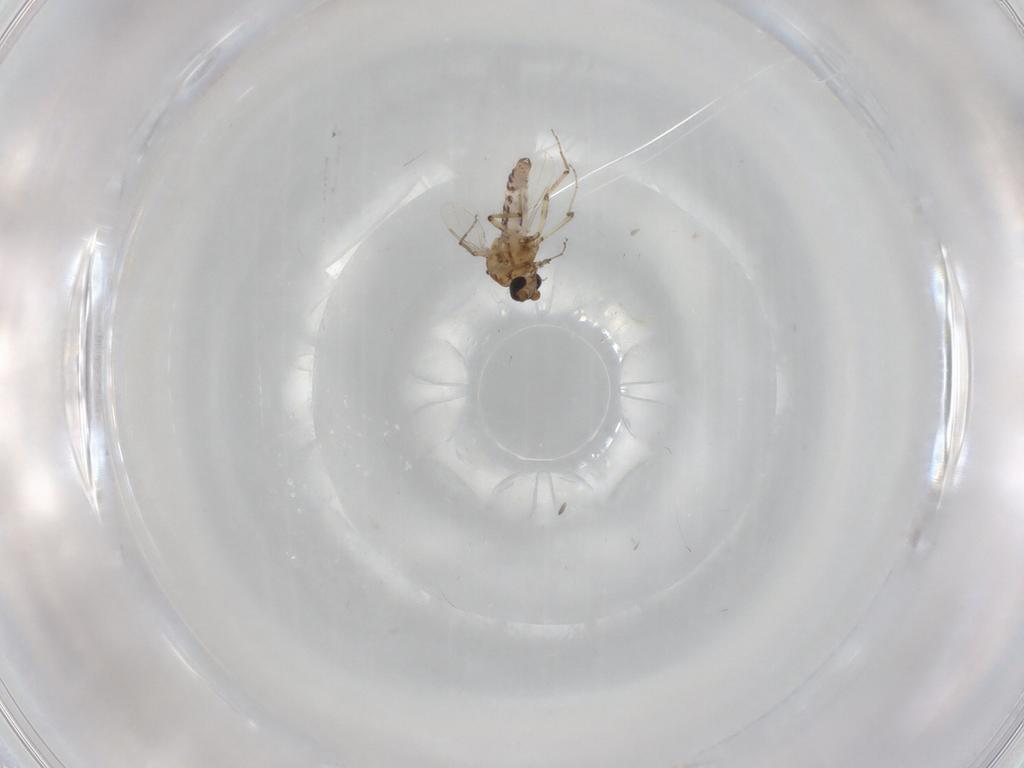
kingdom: Animalia
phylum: Arthropoda
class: Insecta
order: Diptera
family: Ceratopogonidae
